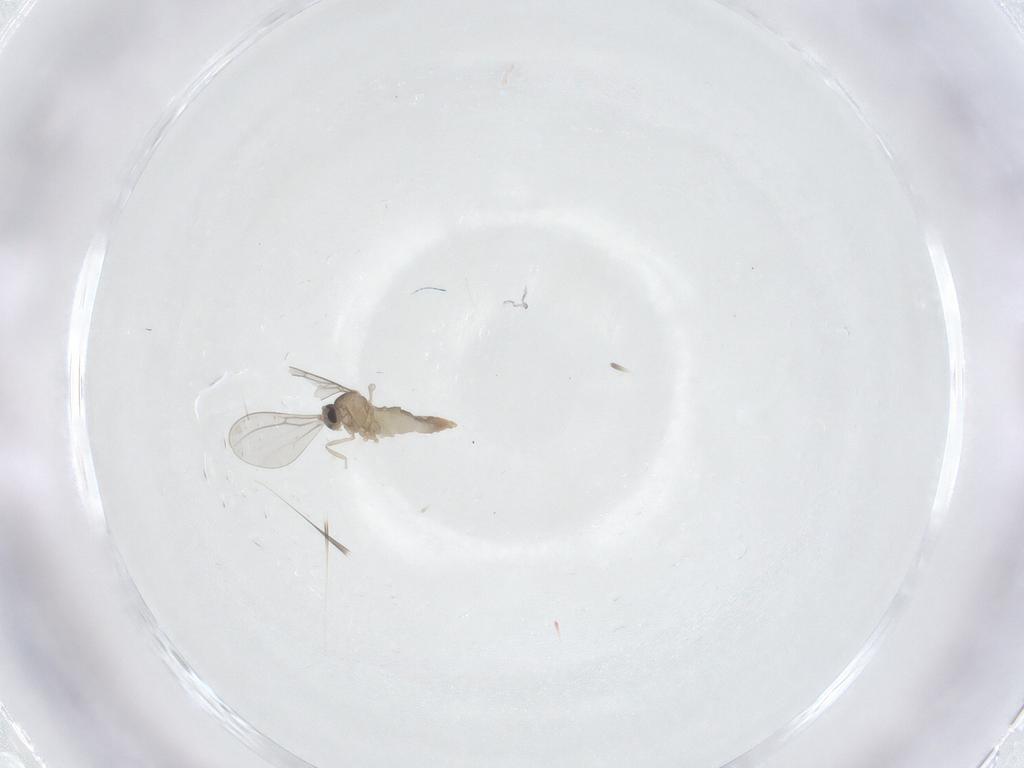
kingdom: Animalia
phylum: Arthropoda
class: Insecta
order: Diptera
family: Cecidomyiidae
